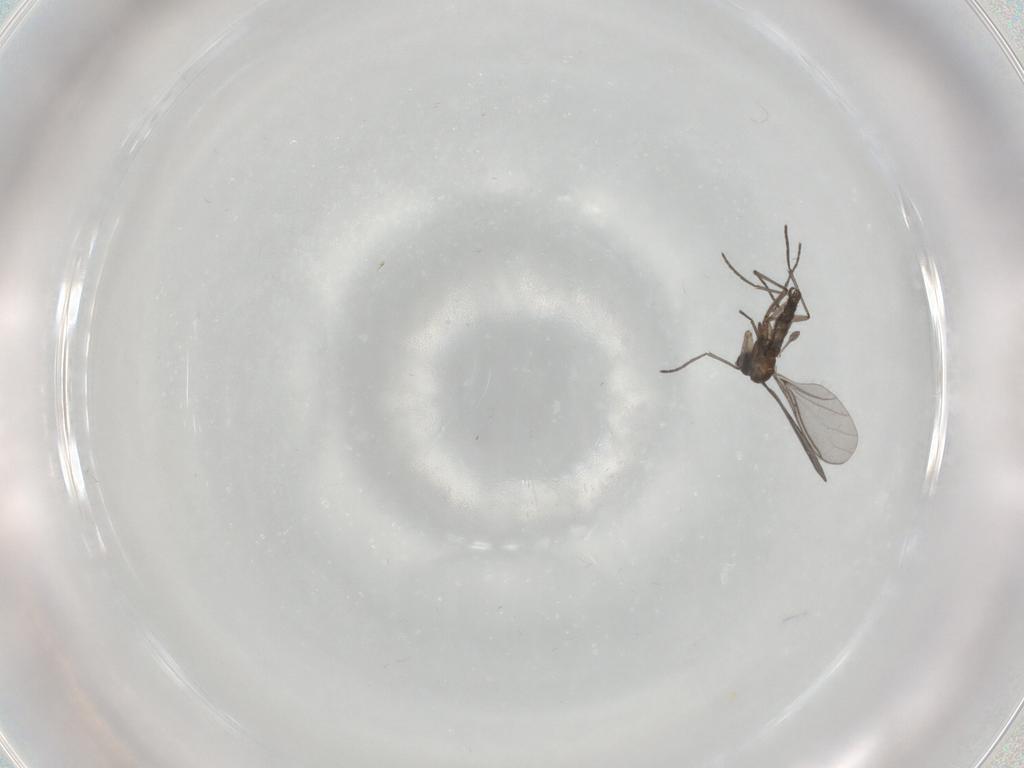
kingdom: Animalia
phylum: Arthropoda
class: Insecta
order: Diptera
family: Sciaridae
